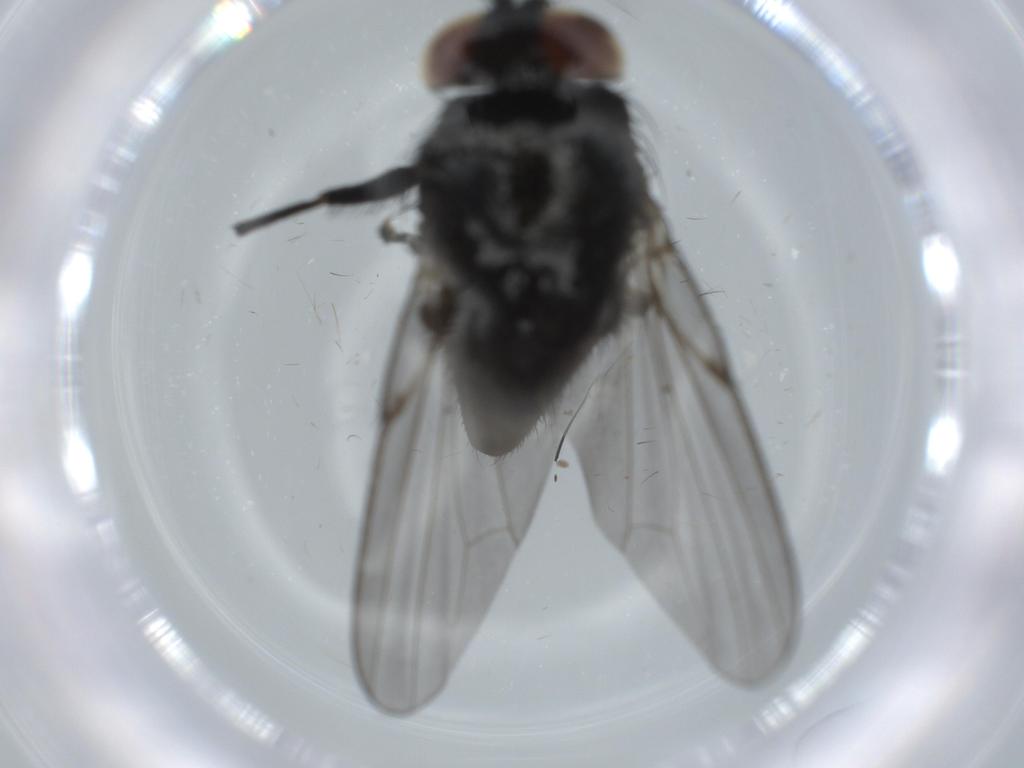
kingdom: Animalia
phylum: Arthropoda
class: Insecta
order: Diptera
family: Milichiidae
